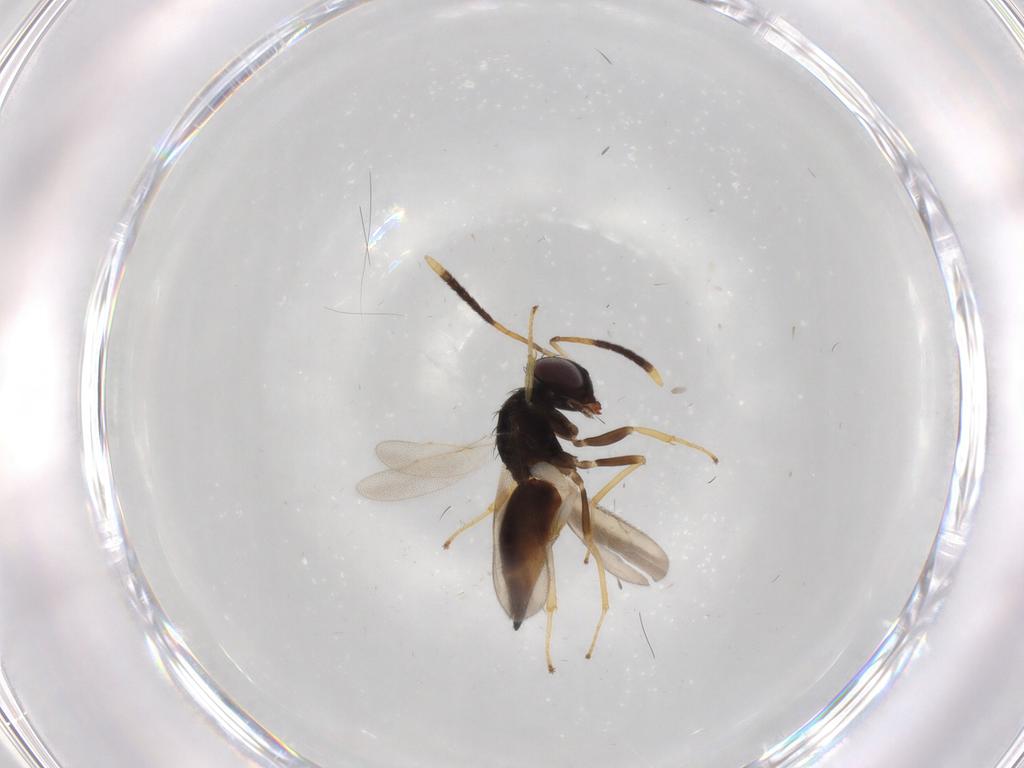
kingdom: Animalia
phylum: Arthropoda
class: Insecta
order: Hymenoptera
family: Diparidae
